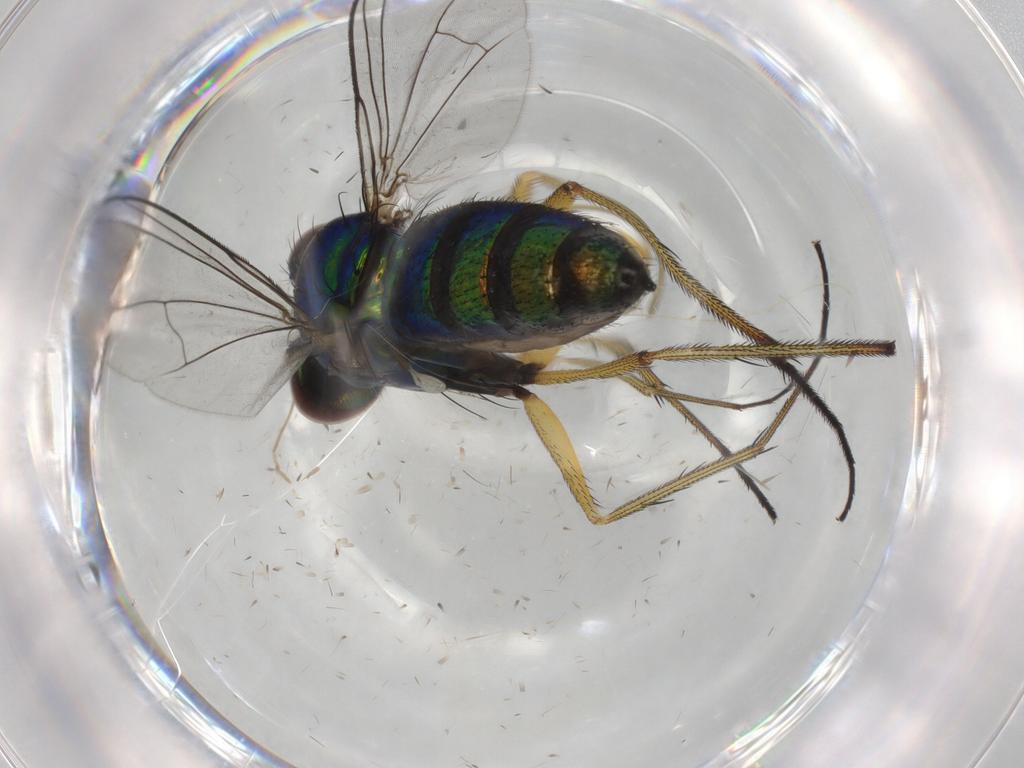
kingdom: Animalia
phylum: Arthropoda
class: Insecta
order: Diptera
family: Dolichopodidae
